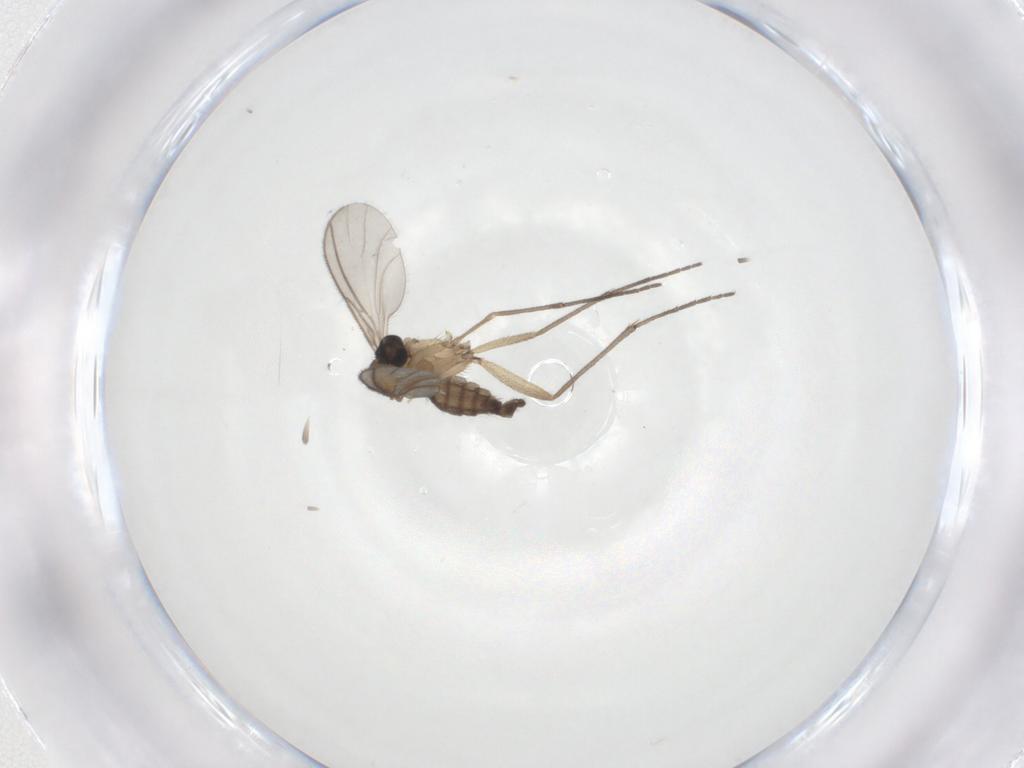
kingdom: Animalia
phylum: Arthropoda
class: Insecta
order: Diptera
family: Sciaridae
